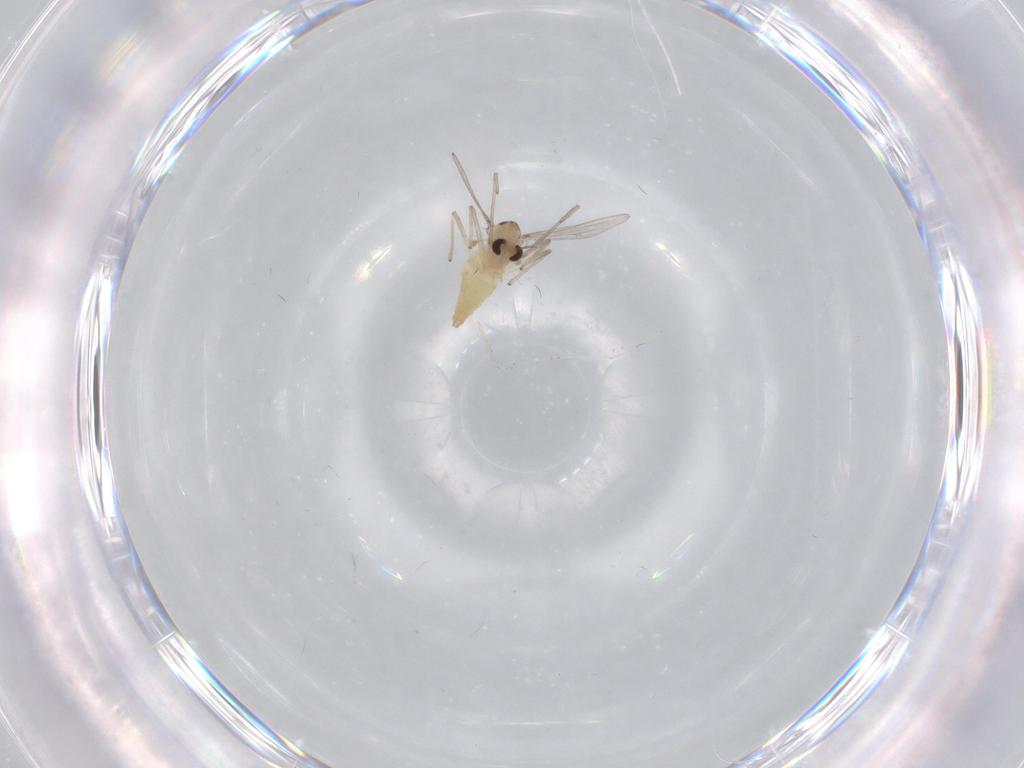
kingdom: Animalia
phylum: Arthropoda
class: Insecta
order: Diptera
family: Chironomidae
